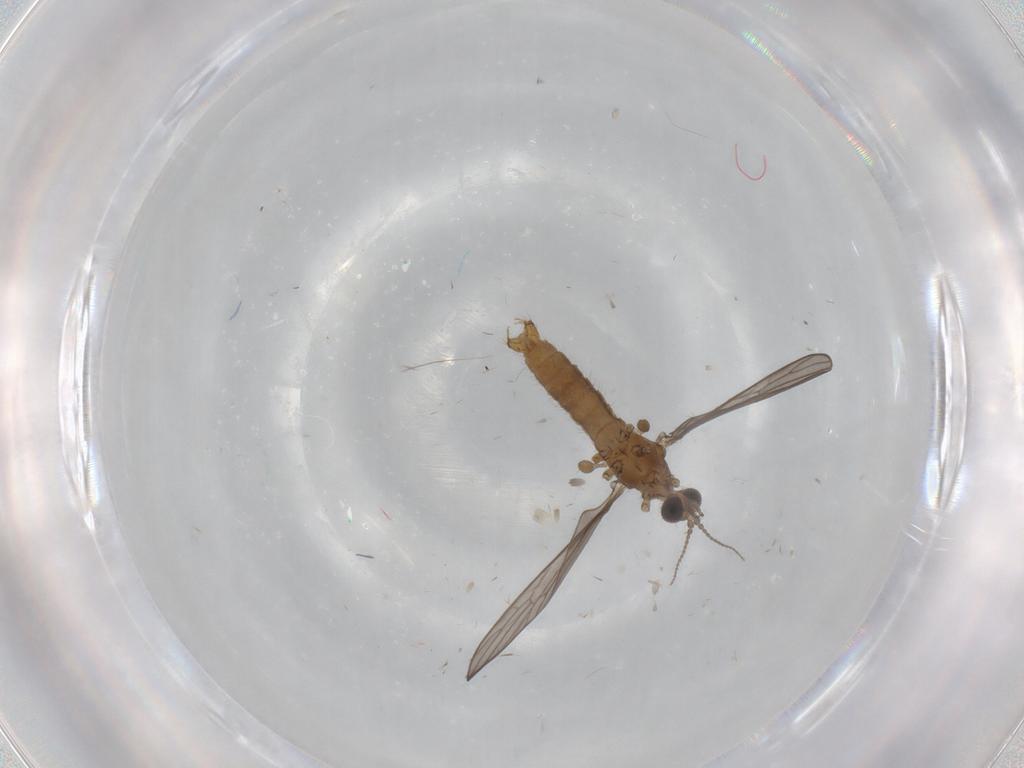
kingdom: Animalia
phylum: Arthropoda
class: Insecta
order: Diptera
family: Limoniidae
